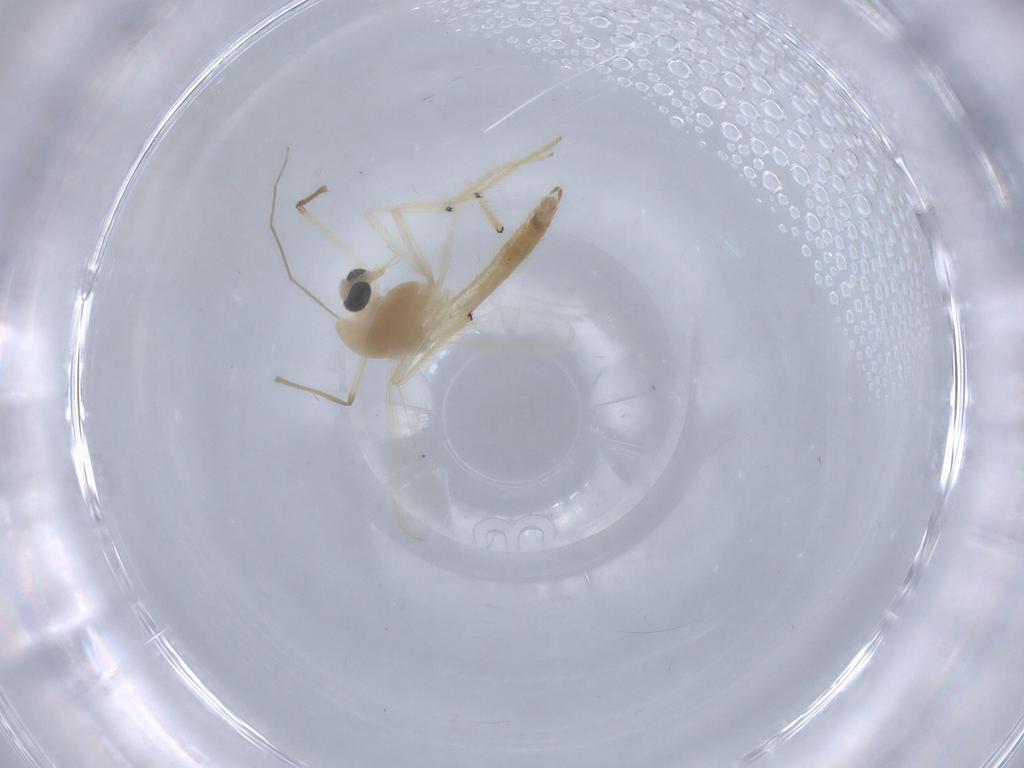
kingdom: Animalia
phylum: Arthropoda
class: Insecta
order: Diptera
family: Chironomidae
